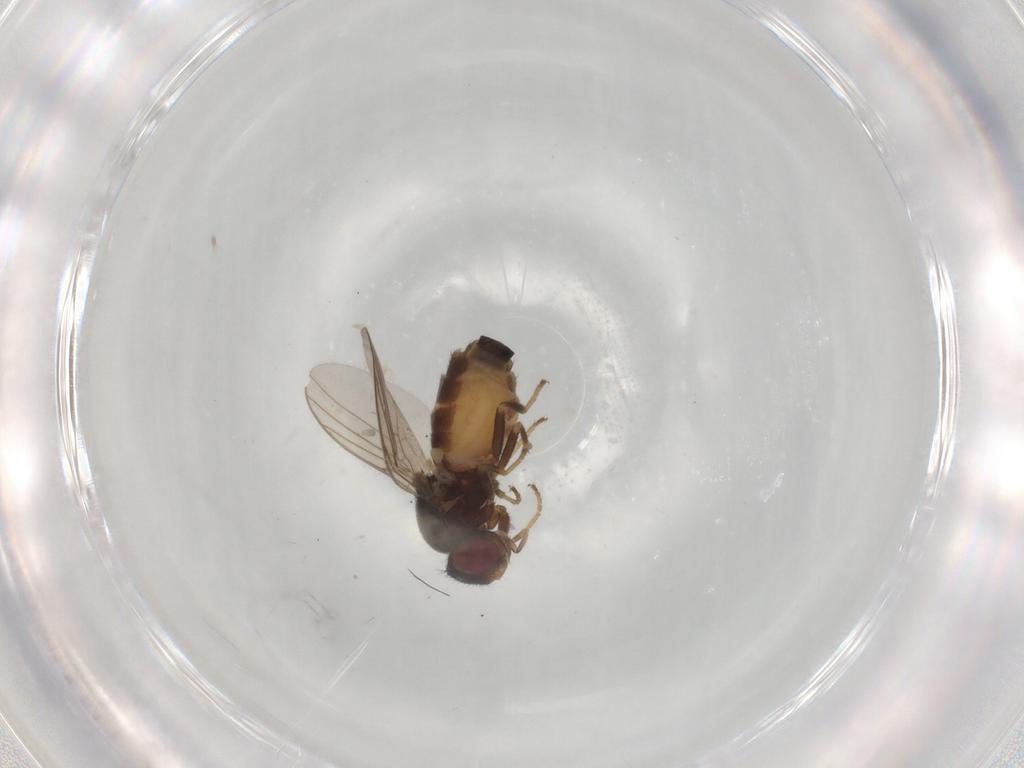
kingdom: Animalia
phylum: Arthropoda
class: Insecta
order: Diptera
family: Chloropidae
